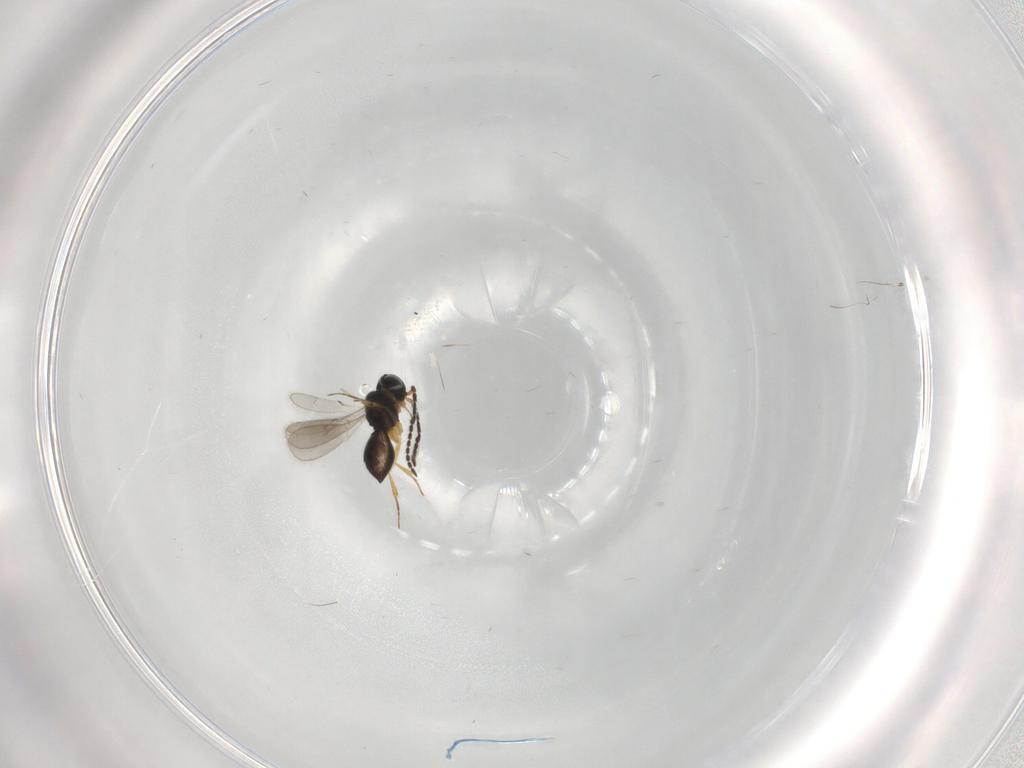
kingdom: Animalia
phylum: Arthropoda
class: Insecta
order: Hymenoptera
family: Scelionidae
